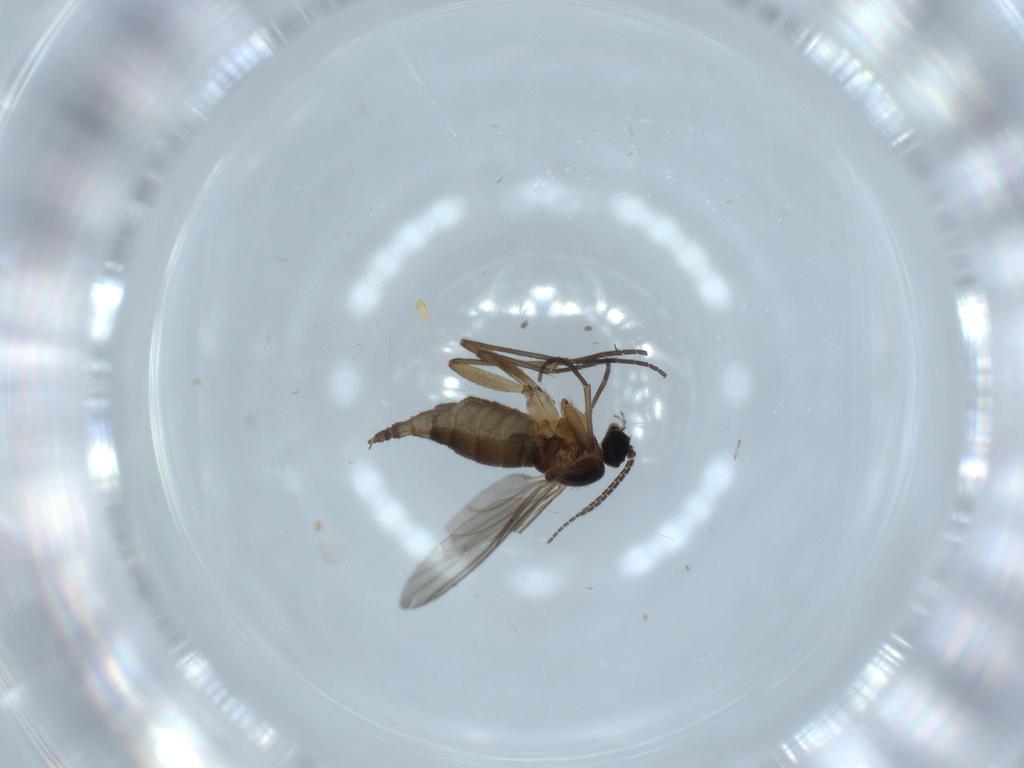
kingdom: Animalia
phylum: Arthropoda
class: Insecta
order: Diptera
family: Sciaridae
